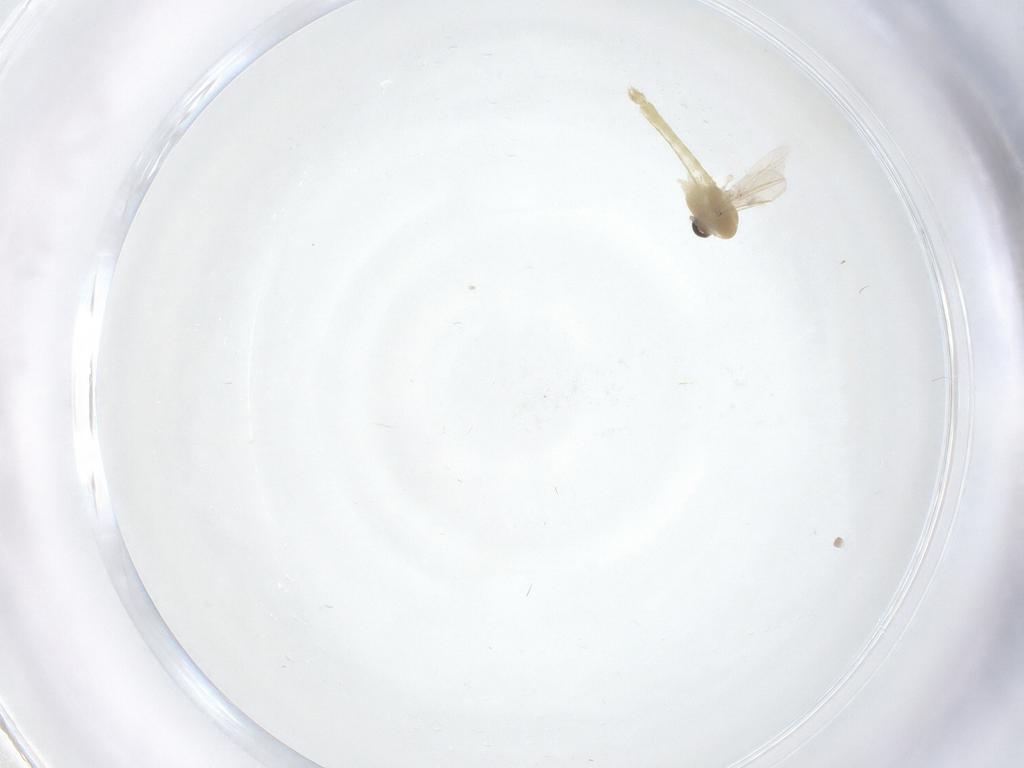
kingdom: Animalia
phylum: Arthropoda
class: Insecta
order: Diptera
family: Chironomidae
